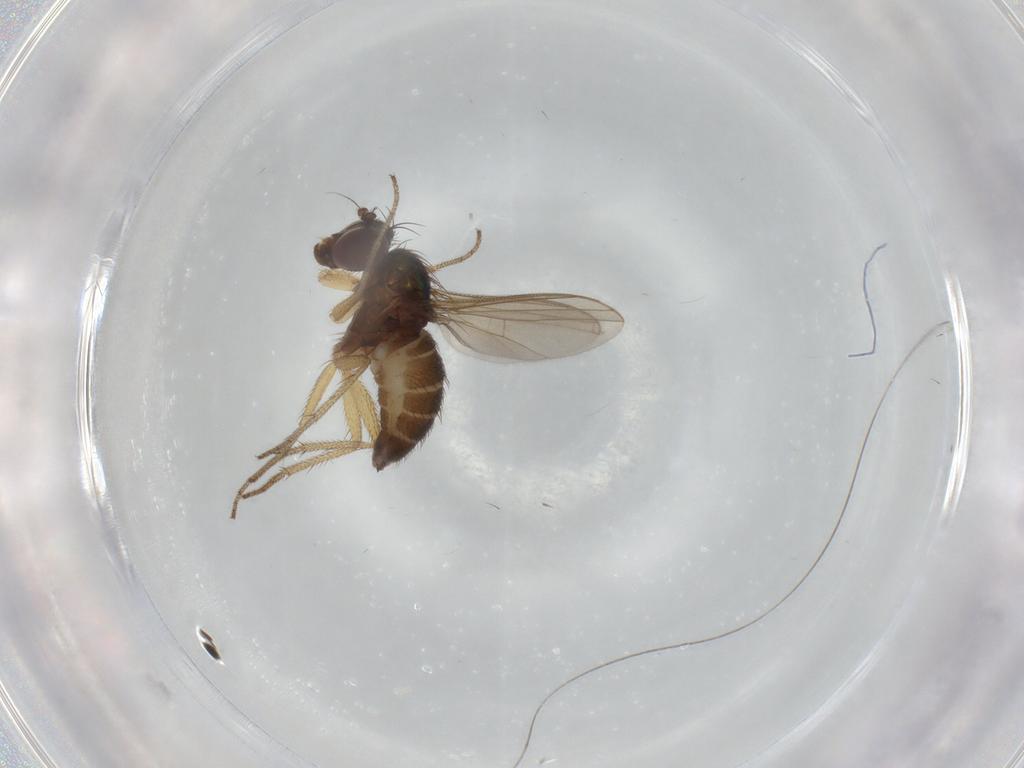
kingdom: Animalia
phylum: Arthropoda
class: Insecta
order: Diptera
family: Dolichopodidae
